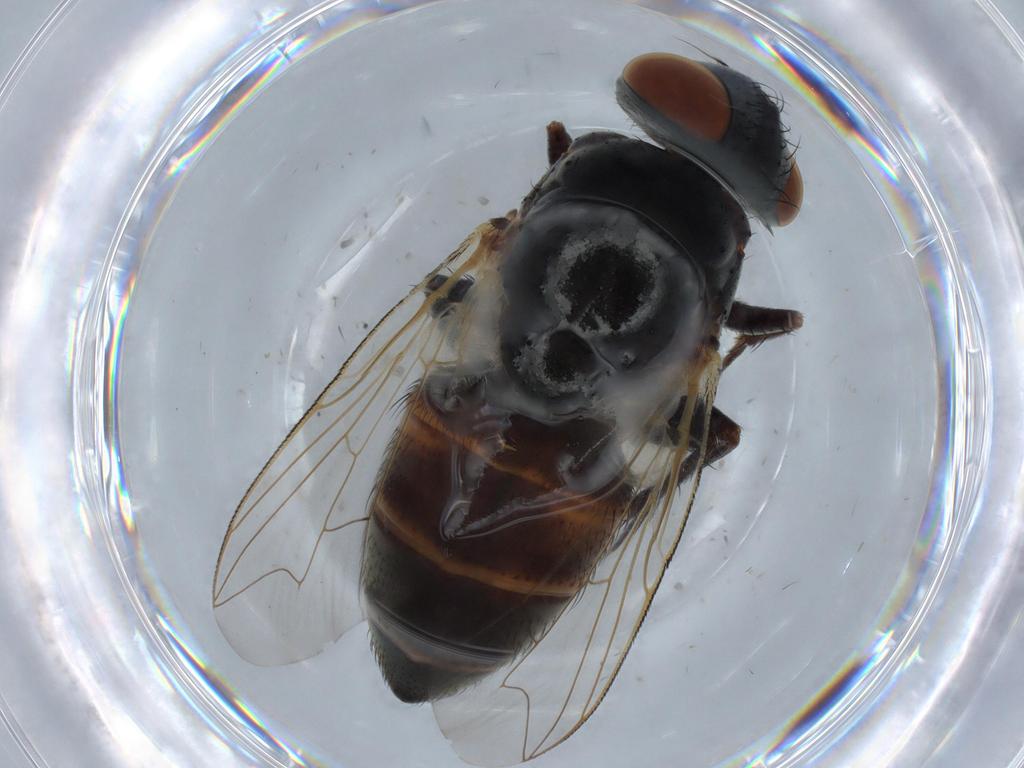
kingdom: Animalia
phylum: Arthropoda
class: Insecta
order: Diptera
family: Sarcophagidae
